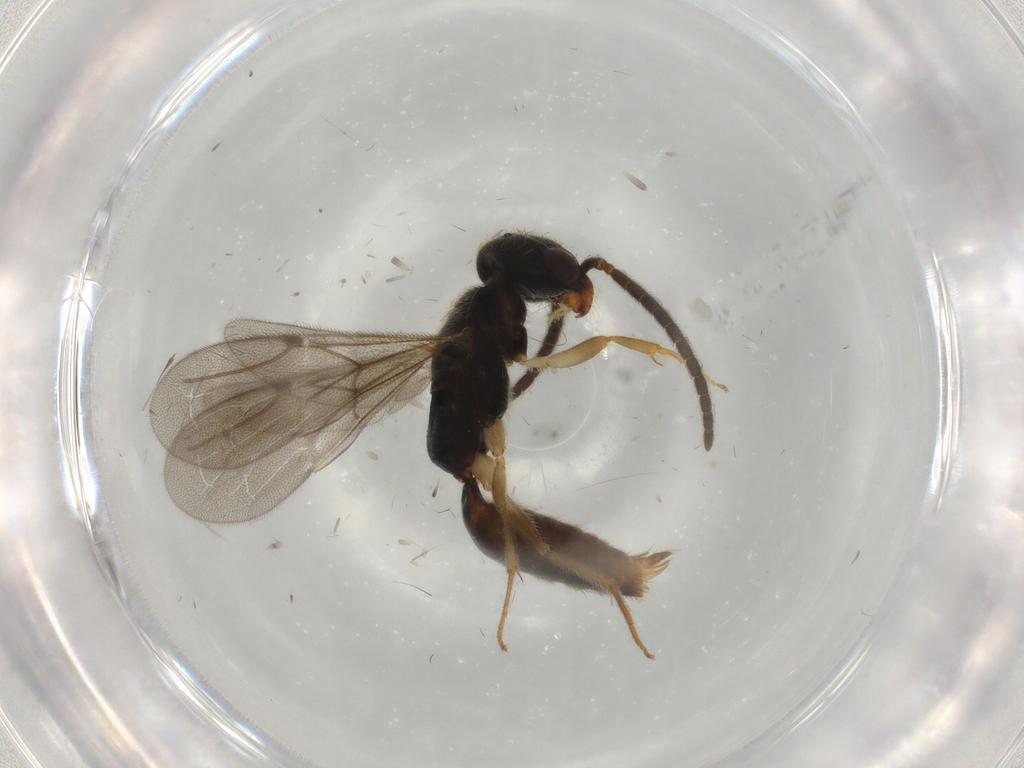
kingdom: Animalia
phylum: Arthropoda
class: Insecta
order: Hymenoptera
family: Bethylidae
